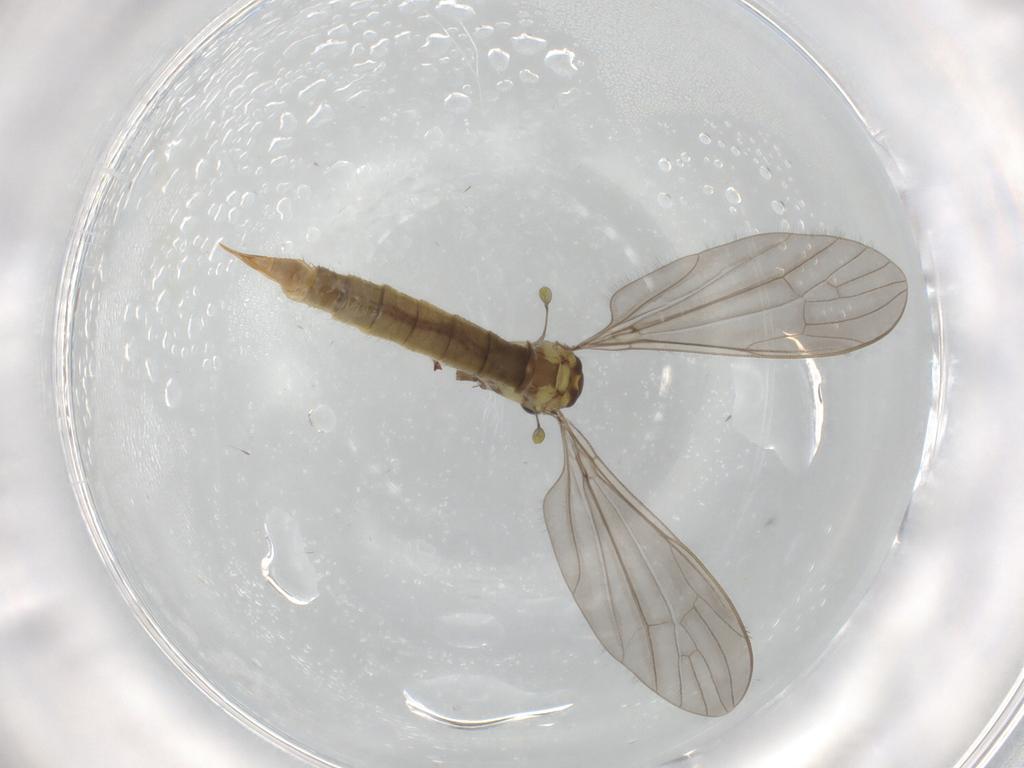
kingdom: Animalia
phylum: Arthropoda
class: Insecta
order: Diptera
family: Limoniidae
